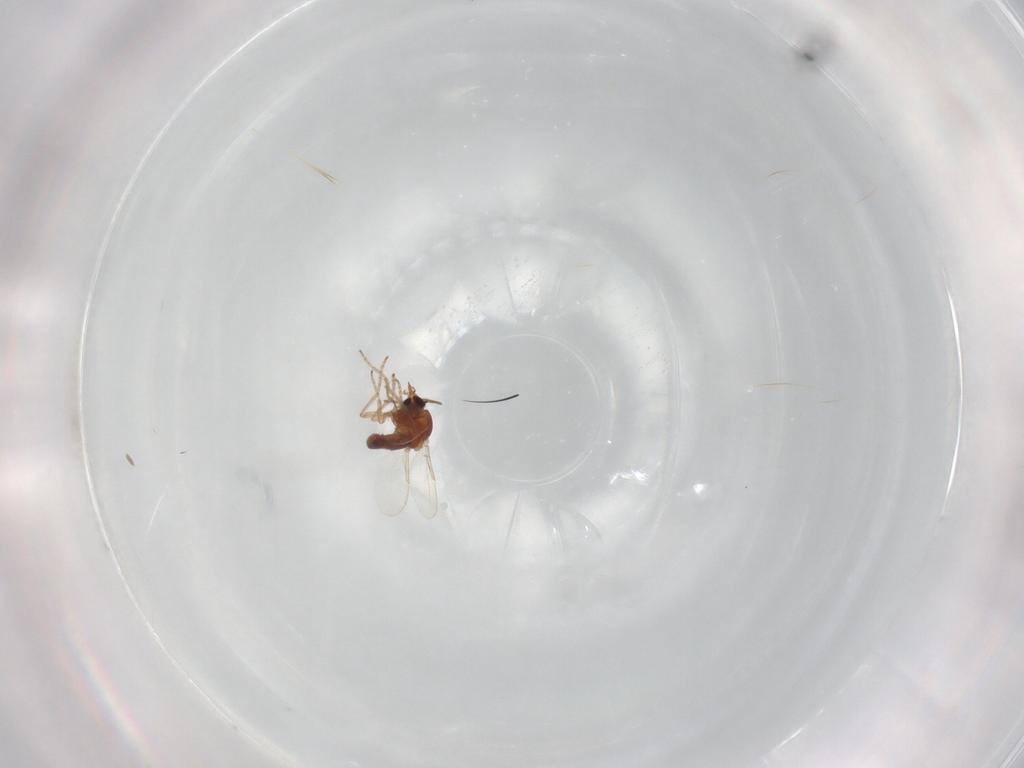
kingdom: Animalia
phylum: Arthropoda
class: Insecta
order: Diptera
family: Ceratopogonidae
